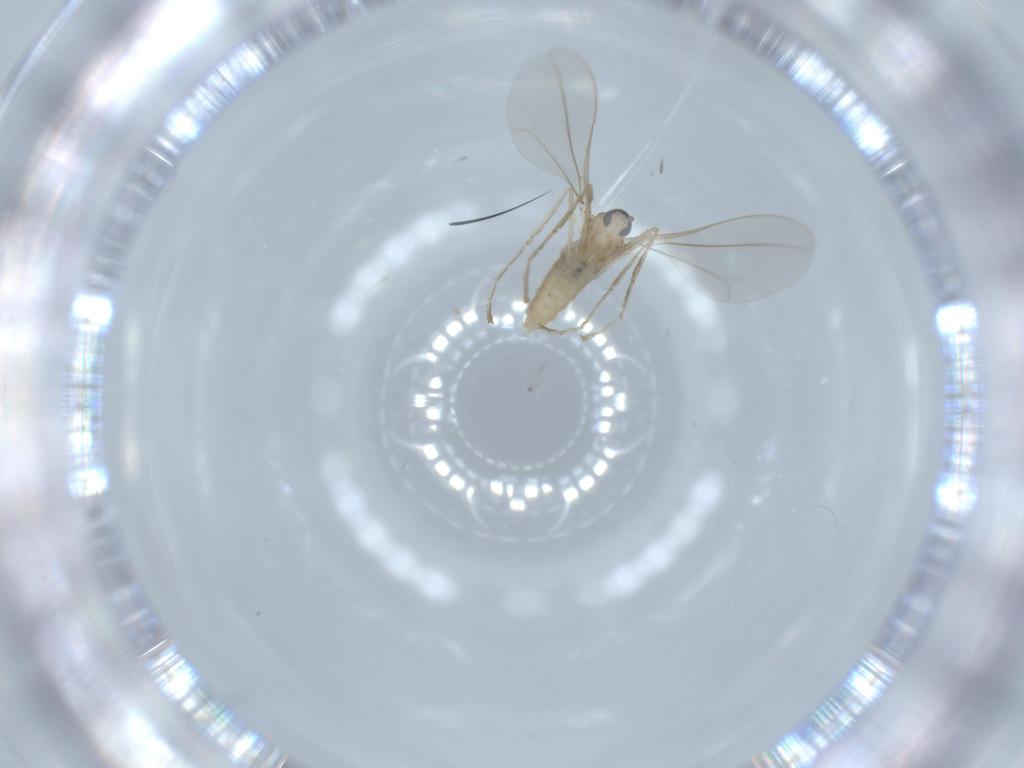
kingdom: Animalia
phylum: Arthropoda
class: Insecta
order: Diptera
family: Cecidomyiidae
